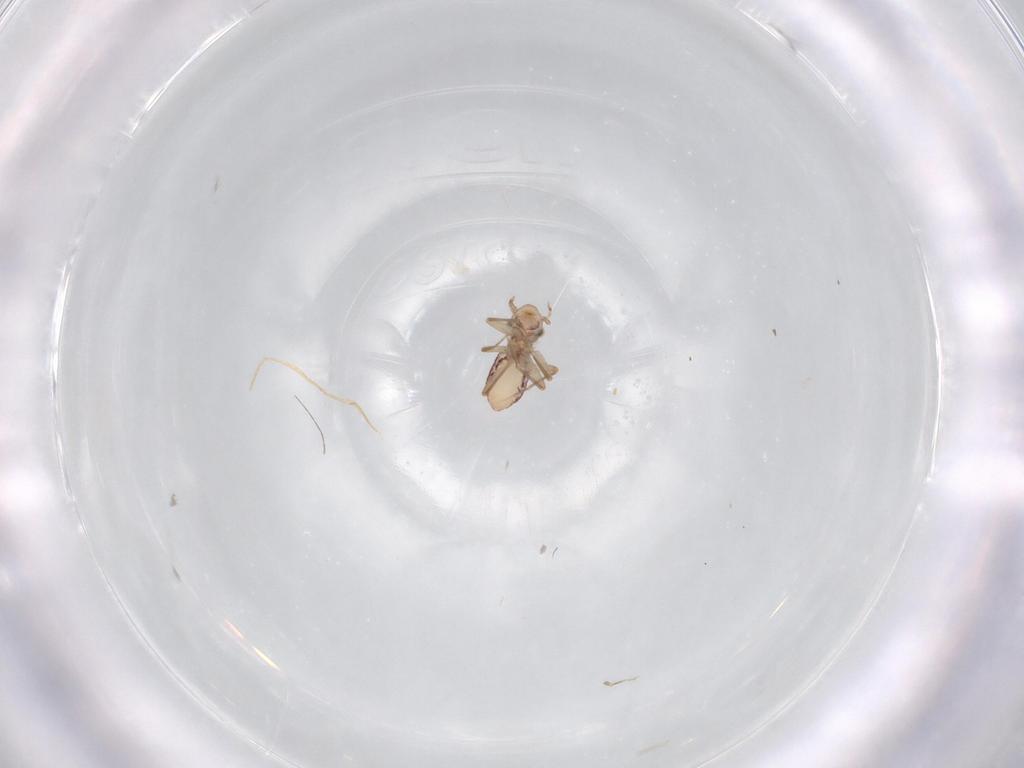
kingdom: Animalia
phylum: Arthropoda
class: Insecta
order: Psocodea
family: Lepidopsocidae
